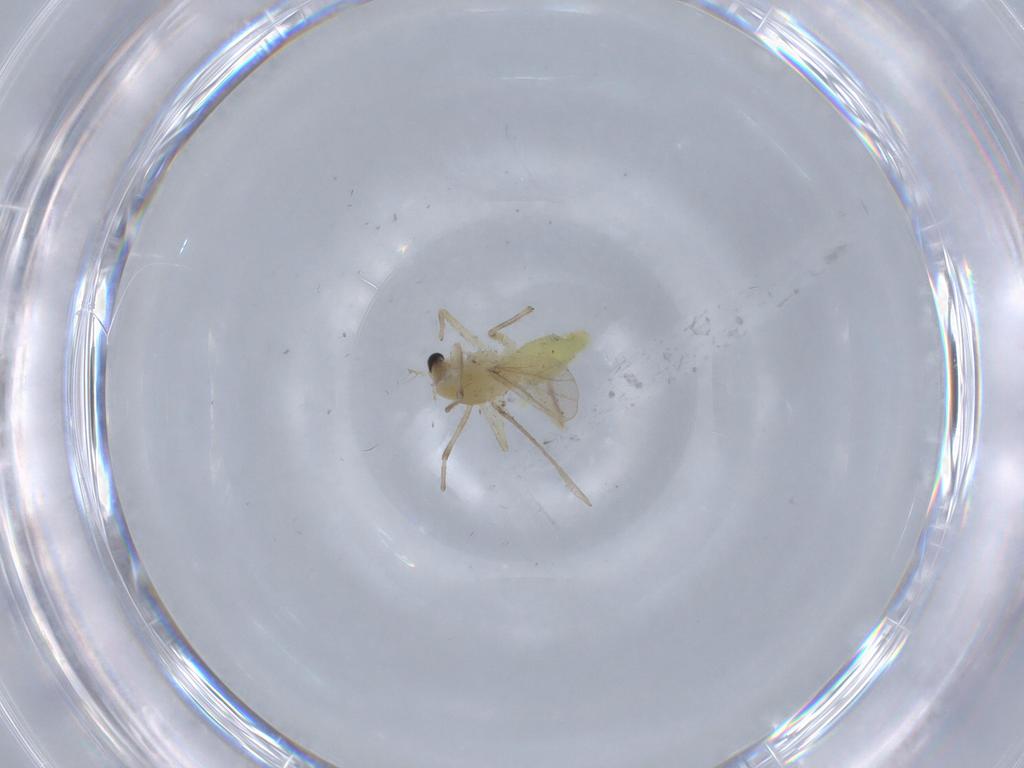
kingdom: Animalia
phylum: Arthropoda
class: Insecta
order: Diptera
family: Chironomidae
